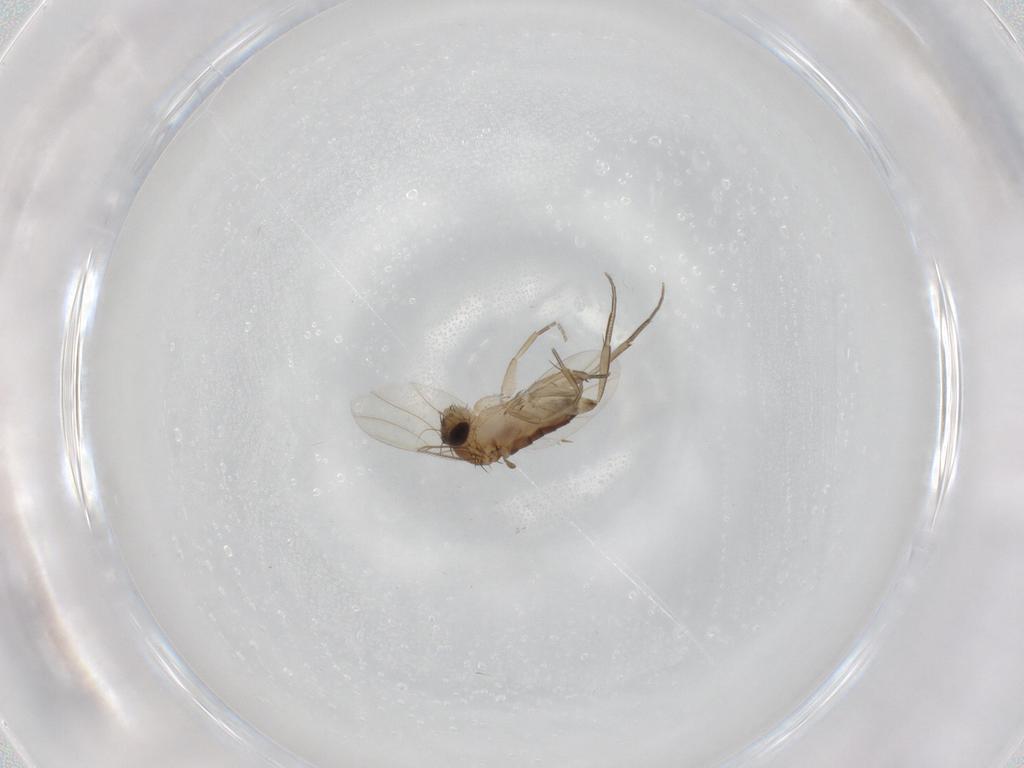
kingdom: Animalia
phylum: Arthropoda
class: Insecta
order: Diptera
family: Phoridae
